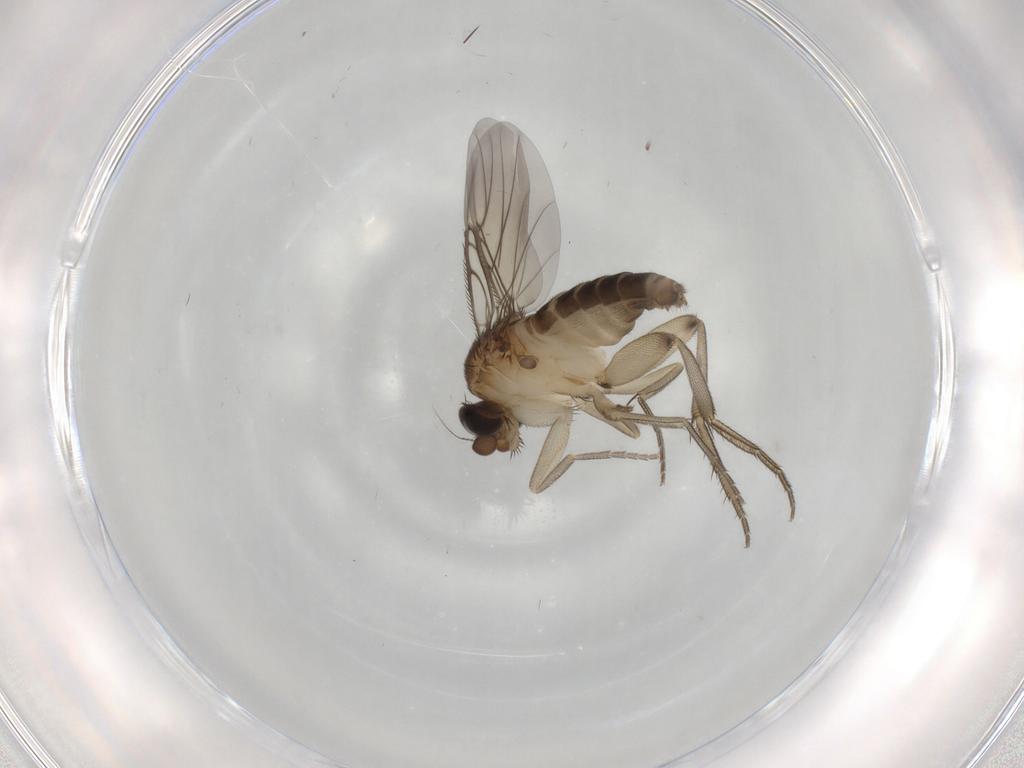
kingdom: Animalia
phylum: Arthropoda
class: Insecta
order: Diptera
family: Phoridae
